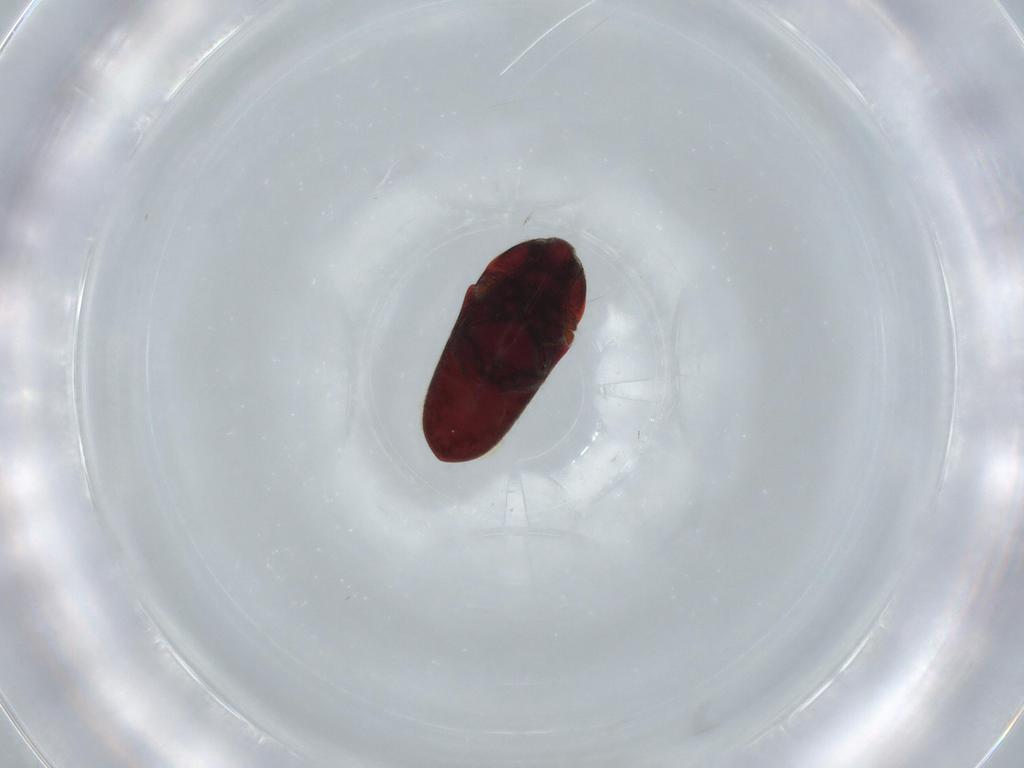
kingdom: Animalia
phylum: Arthropoda
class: Insecta
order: Coleoptera
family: Throscidae
